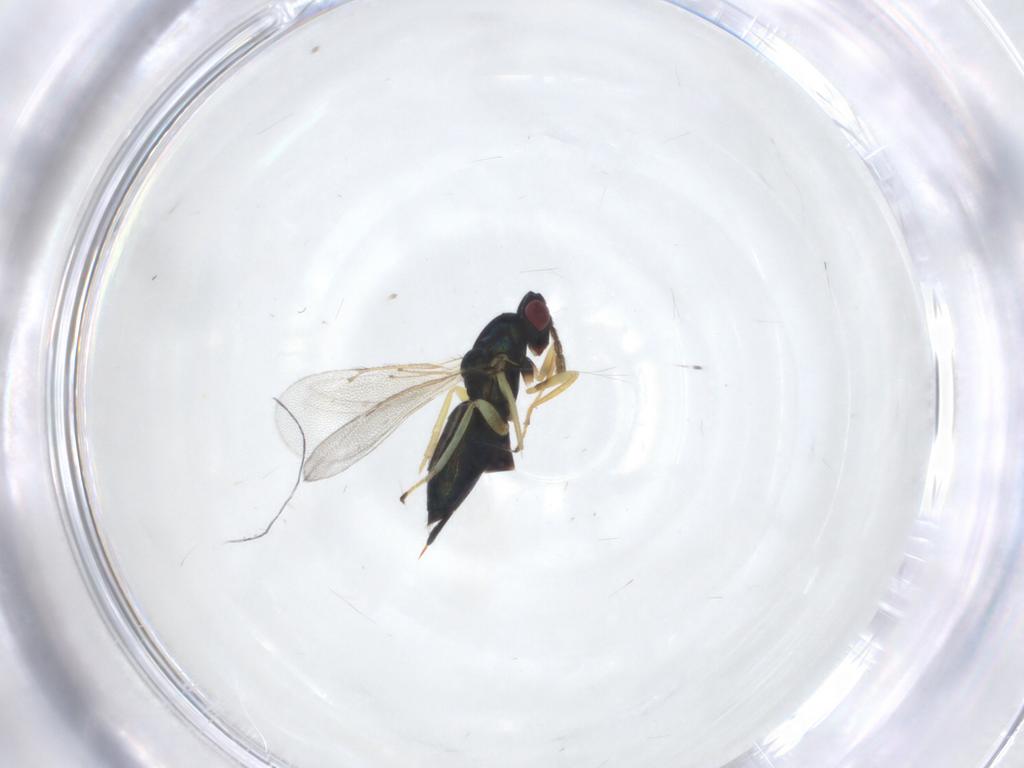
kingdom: Animalia
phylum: Arthropoda
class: Insecta
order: Hymenoptera
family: Eulophidae
